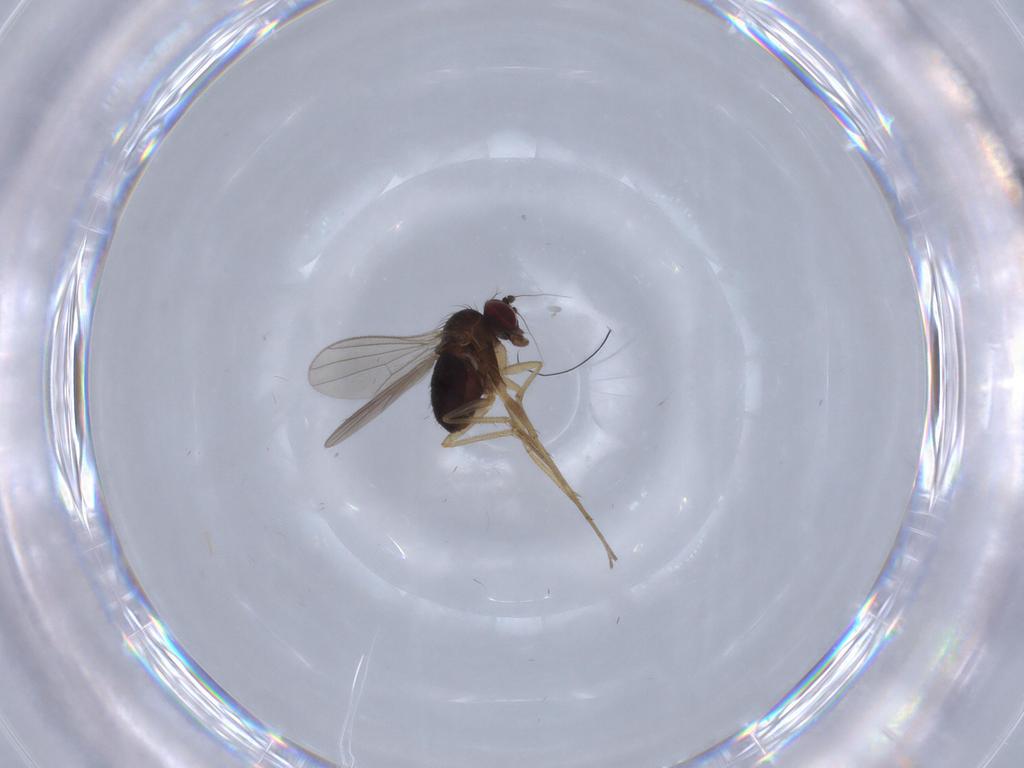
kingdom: Animalia
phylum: Arthropoda
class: Insecta
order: Diptera
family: Dolichopodidae
